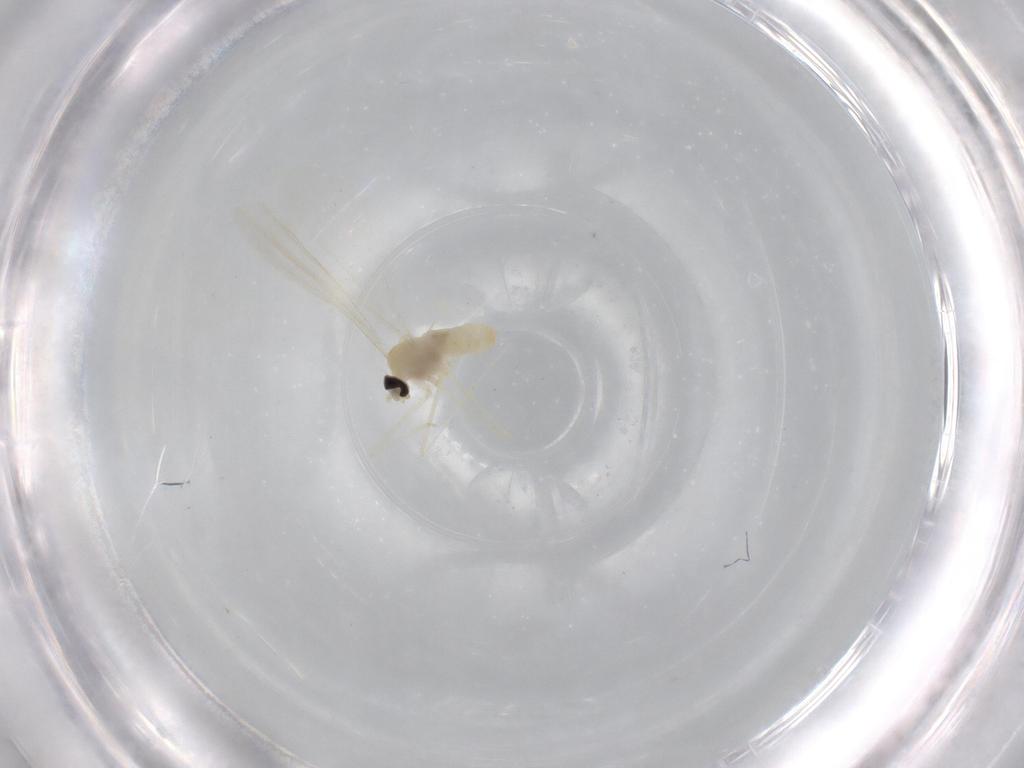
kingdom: Animalia
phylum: Arthropoda
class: Insecta
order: Diptera
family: Cecidomyiidae
